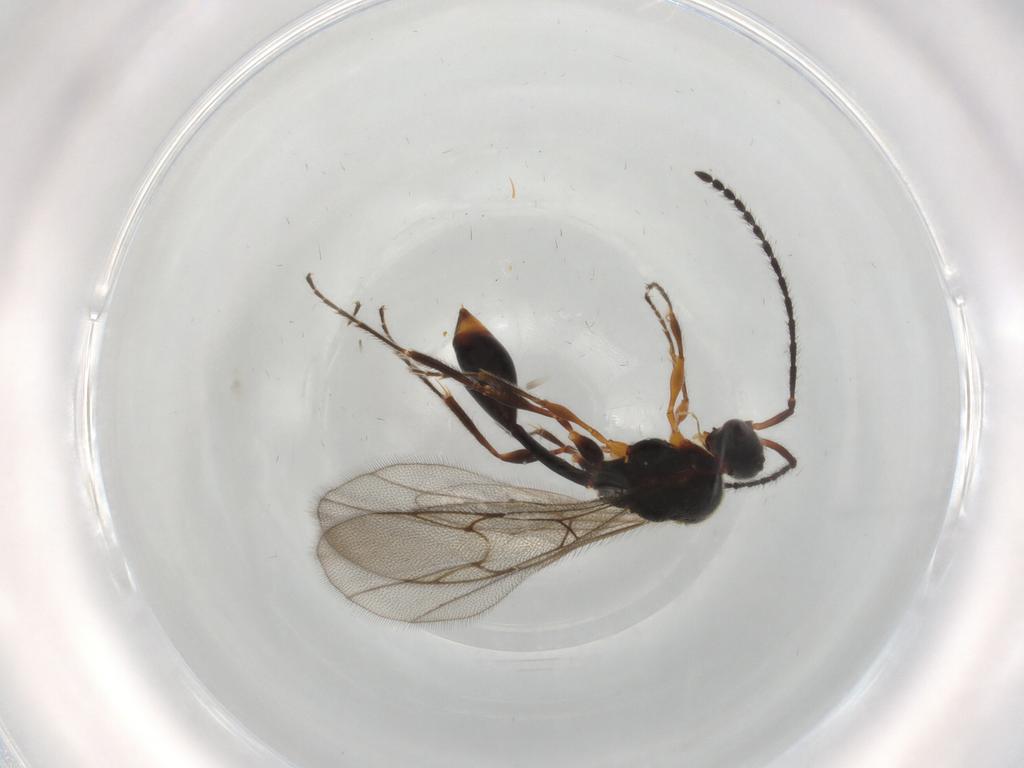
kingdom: Animalia
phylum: Arthropoda
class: Insecta
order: Hymenoptera
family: Diapriidae
